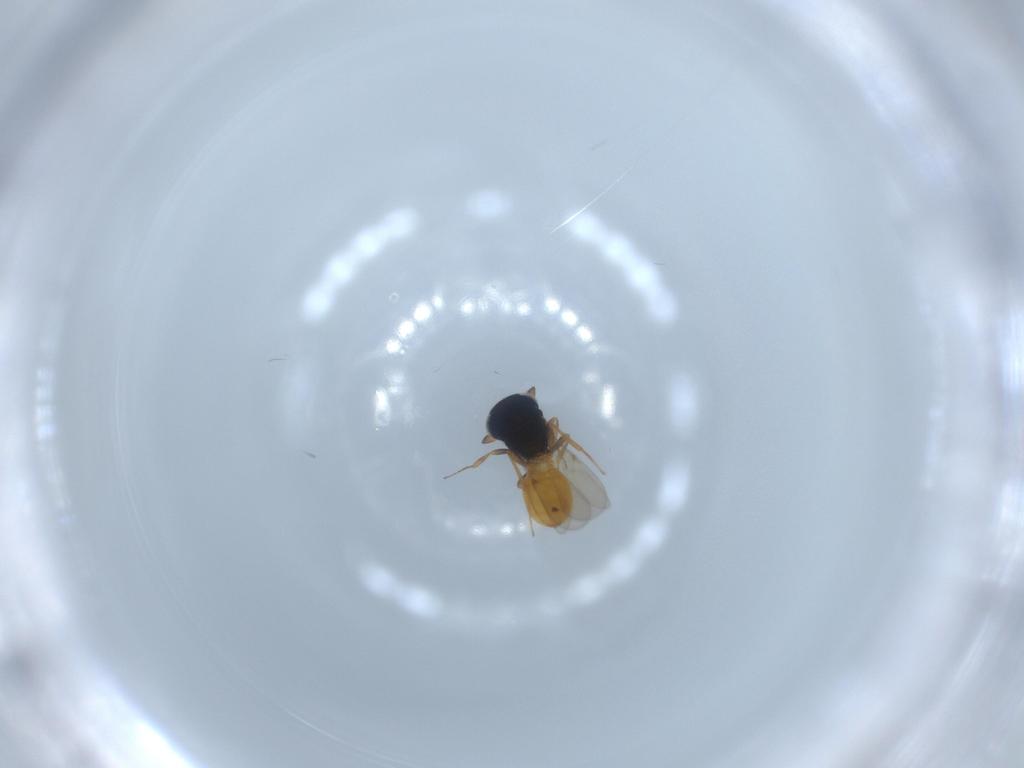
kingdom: Animalia
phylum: Arthropoda
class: Insecta
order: Hymenoptera
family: Scelionidae
